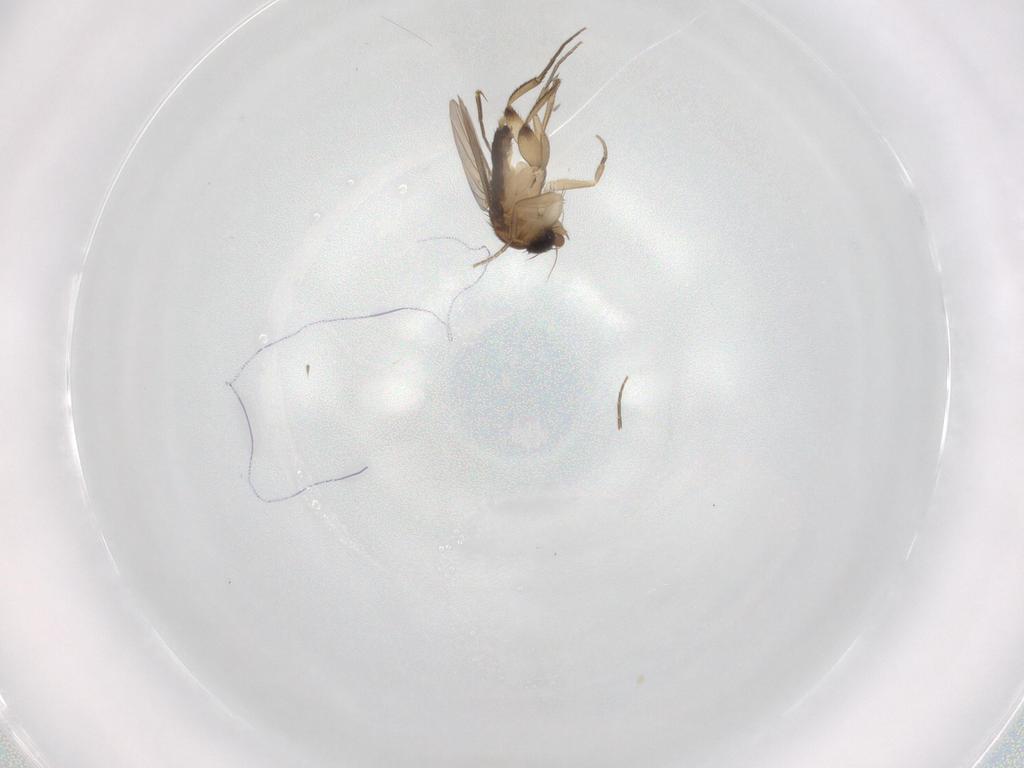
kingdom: Animalia
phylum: Arthropoda
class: Insecta
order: Diptera
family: Phoridae
